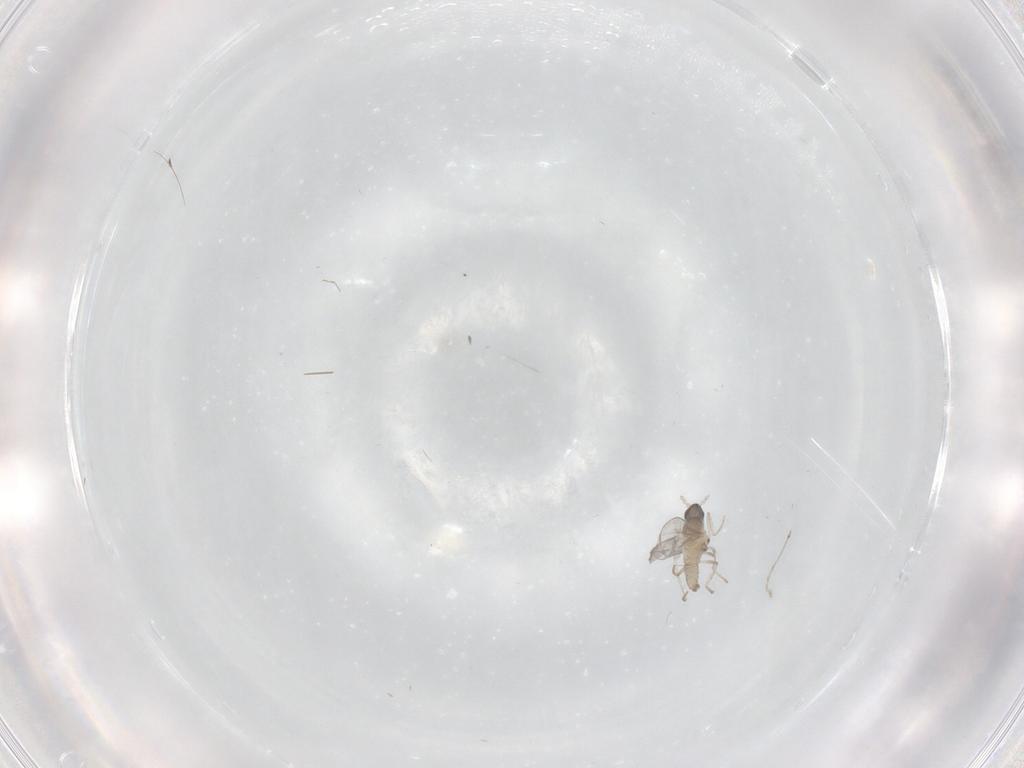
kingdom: Animalia
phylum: Arthropoda
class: Insecta
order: Diptera
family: Cecidomyiidae
